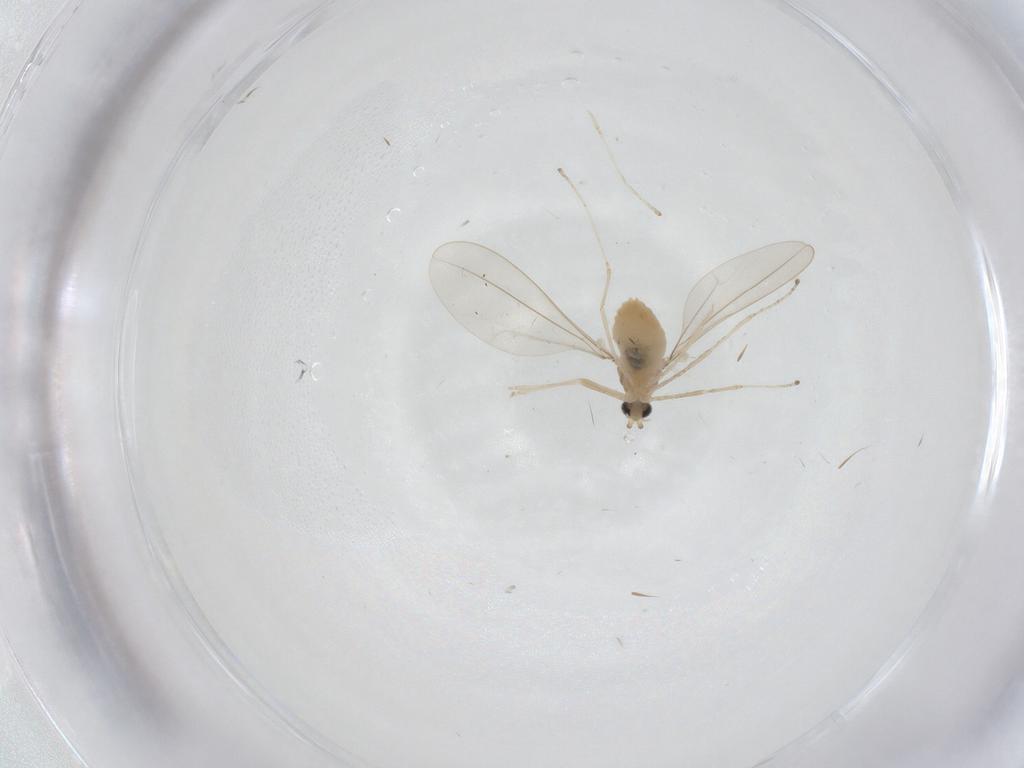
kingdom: Animalia
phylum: Arthropoda
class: Insecta
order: Diptera
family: Cecidomyiidae
